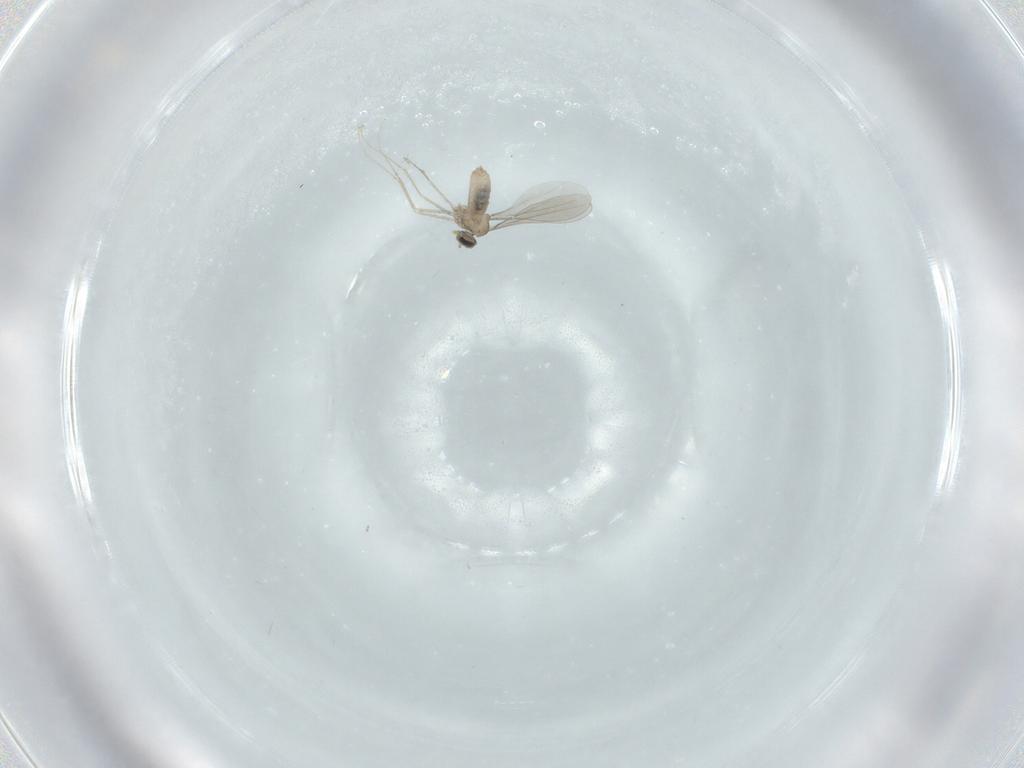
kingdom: Animalia
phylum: Arthropoda
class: Insecta
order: Diptera
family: Cecidomyiidae
